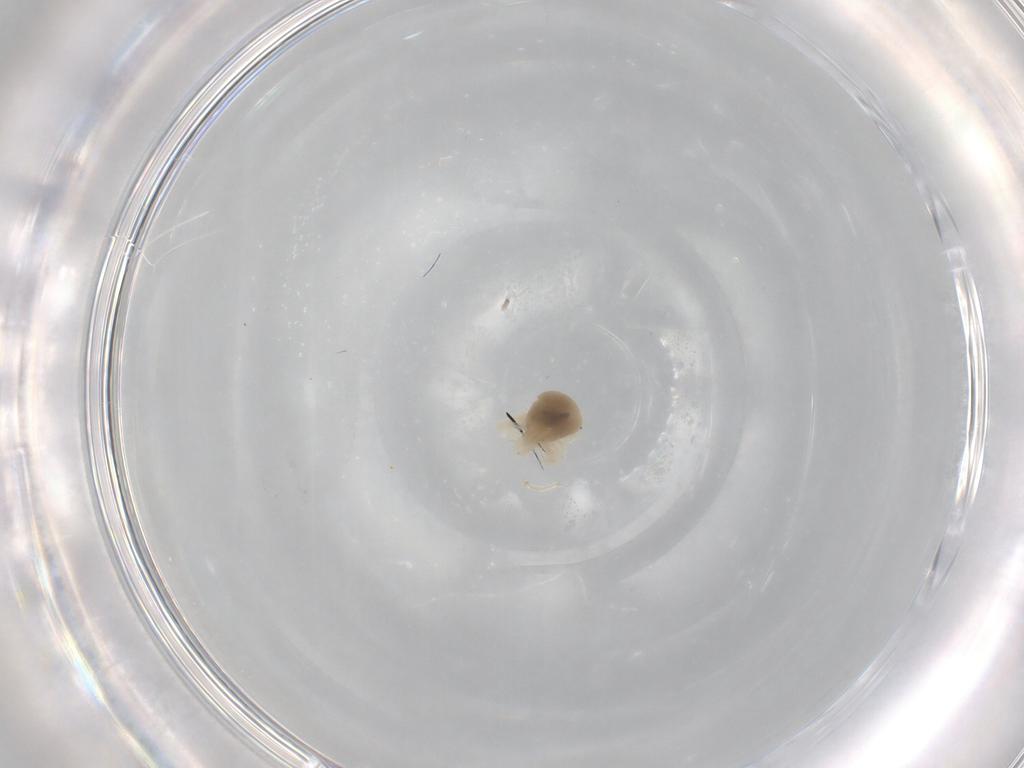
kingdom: Animalia
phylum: Arthropoda
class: Arachnida
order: Trombidiformes
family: Anystidae
